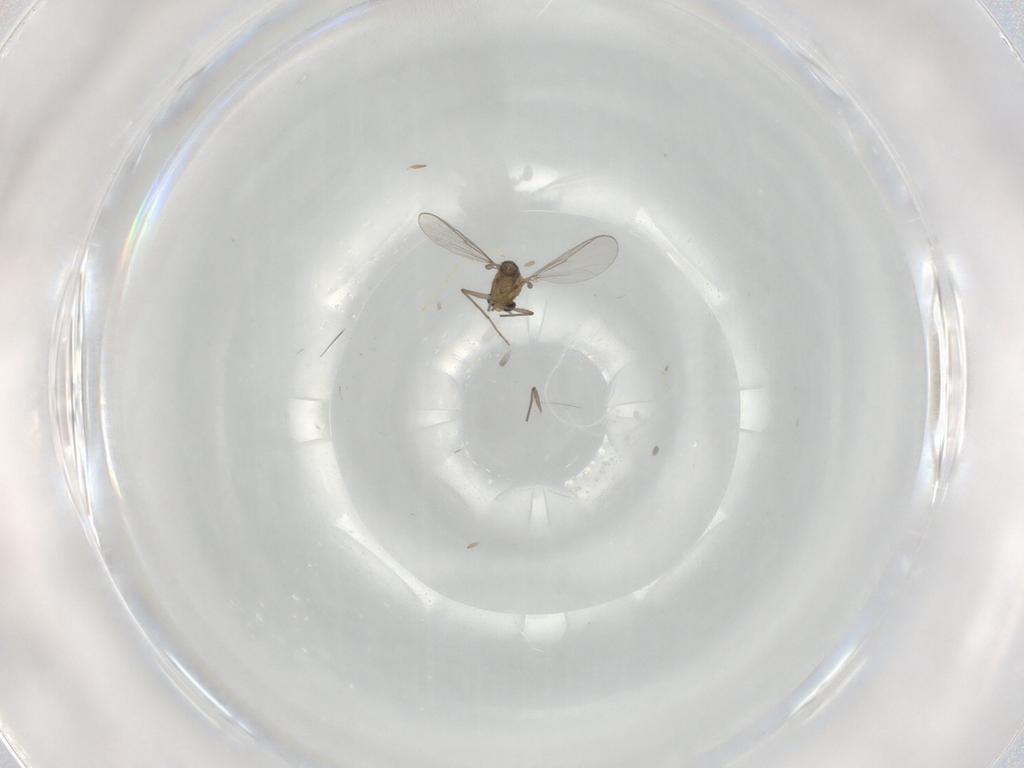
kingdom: Animalia
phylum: Arthropoda
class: Insecta
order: Diptera
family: Chironomidae
